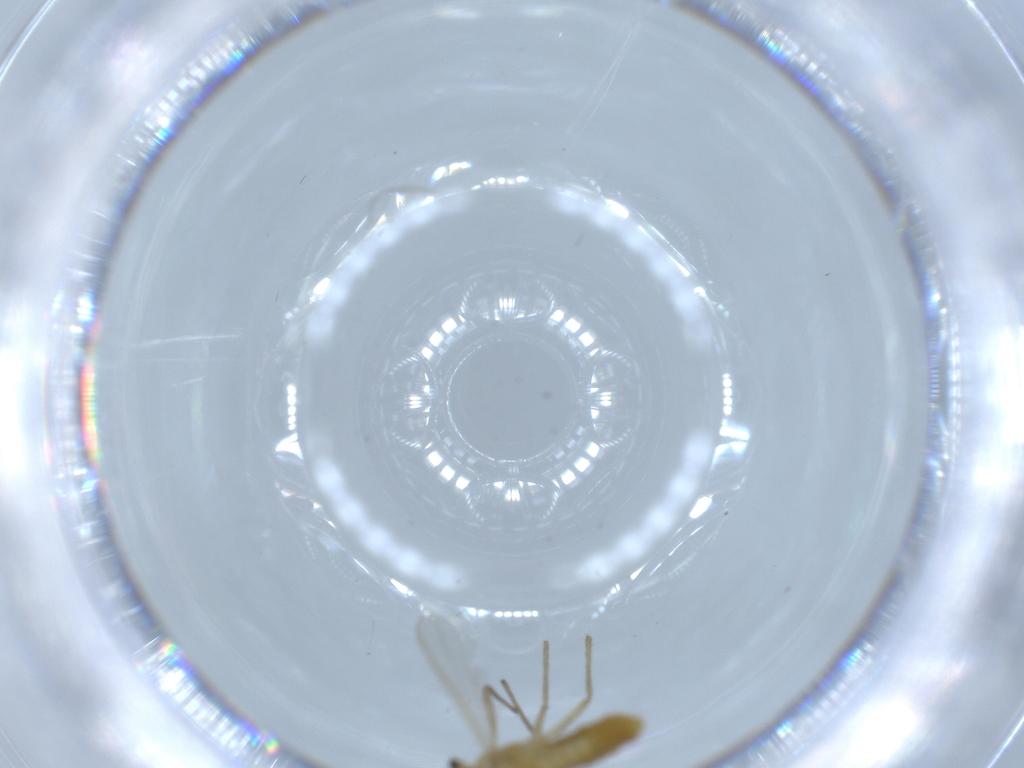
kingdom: Animalia
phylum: Arthropoda
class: Insecta
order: Diptera
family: Chironomidae
